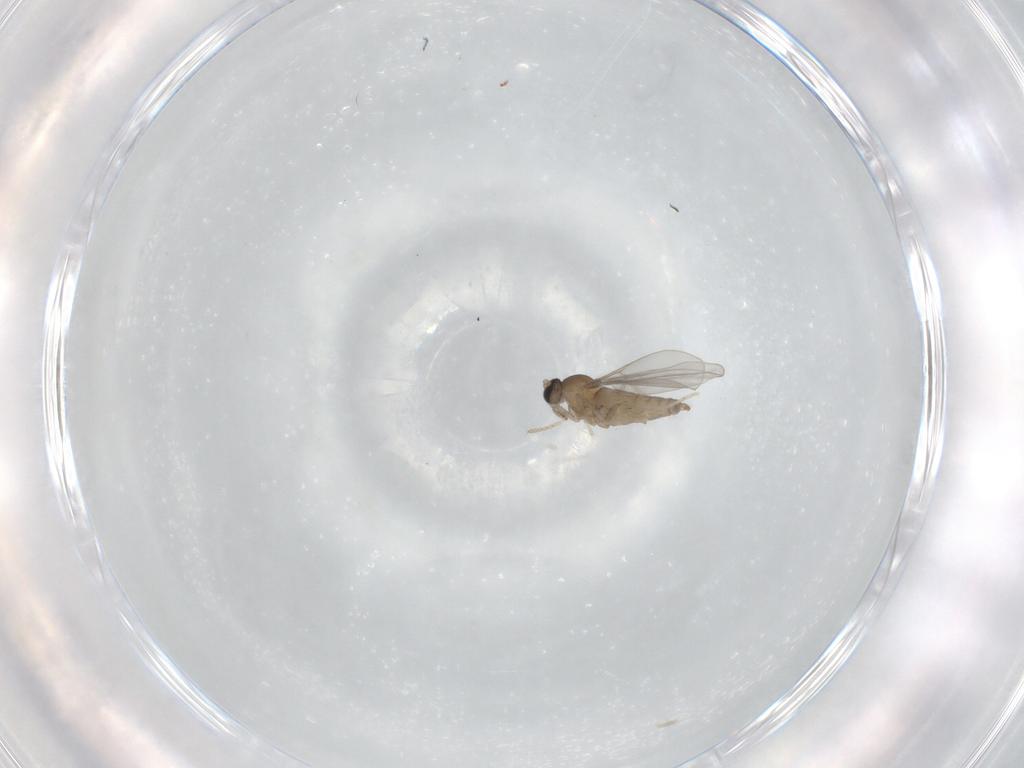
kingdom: Animalia
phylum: Arthropoda
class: Insecta
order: Diptera
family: Cecidomyiidae
